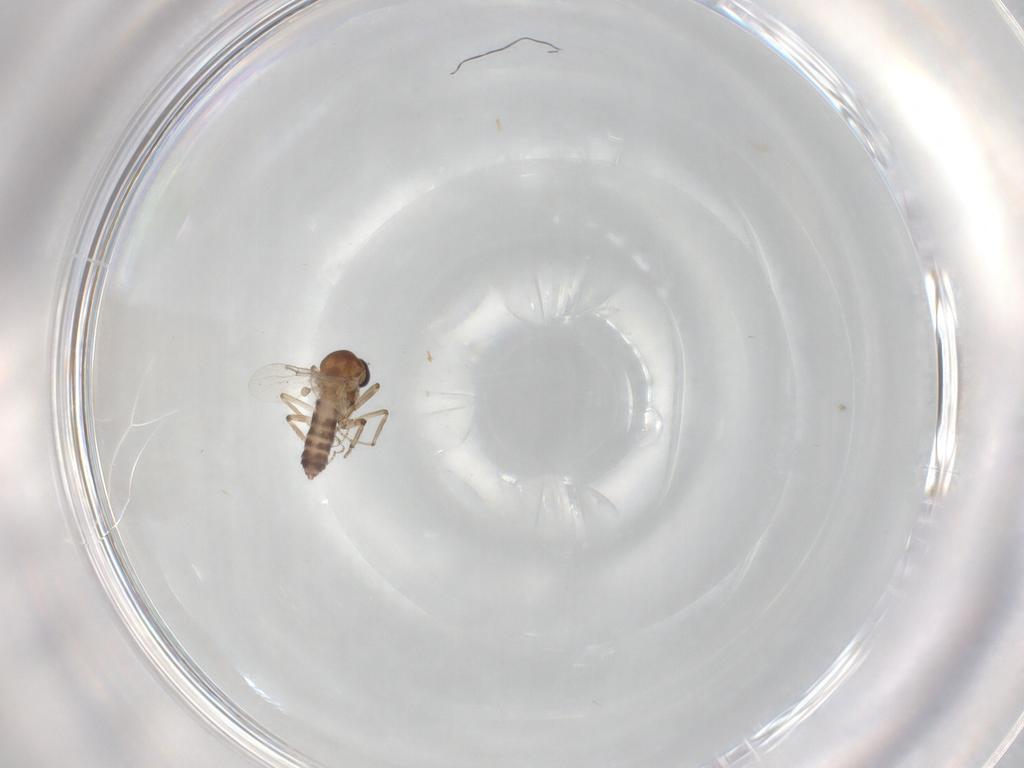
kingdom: Animalia
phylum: Arthropoda
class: Insecta
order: Diptera
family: Ceratopogonidae
